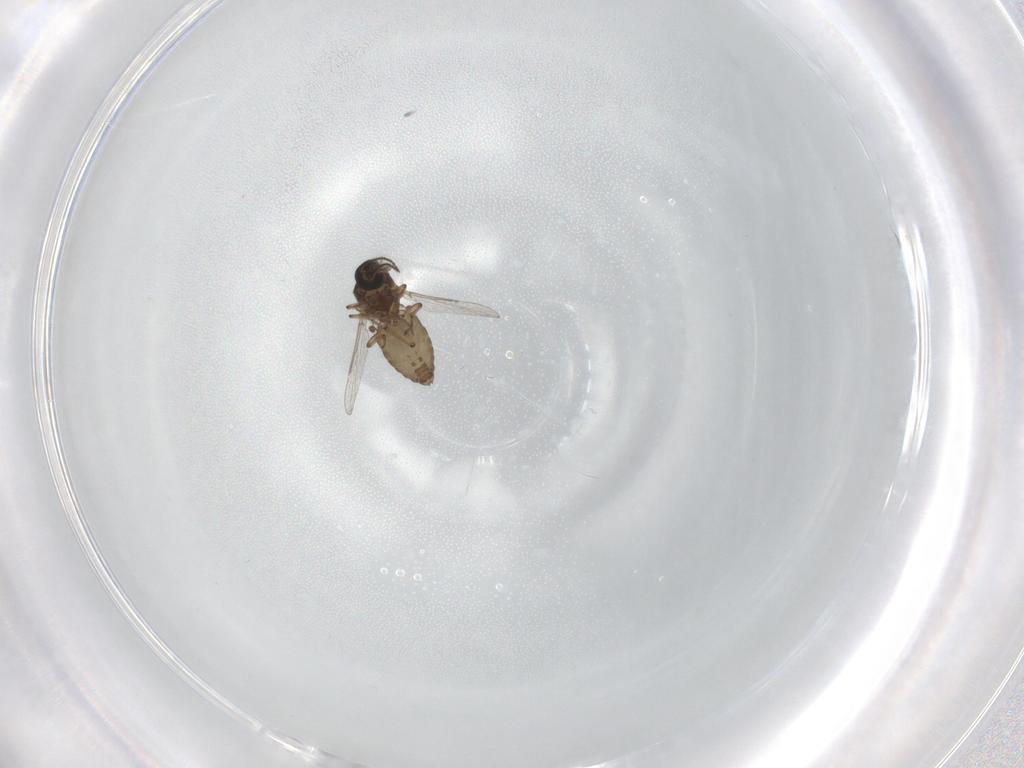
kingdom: Animalia
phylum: Arthropoda
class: Insecta
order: Diptera
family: Ceratopogonidae
